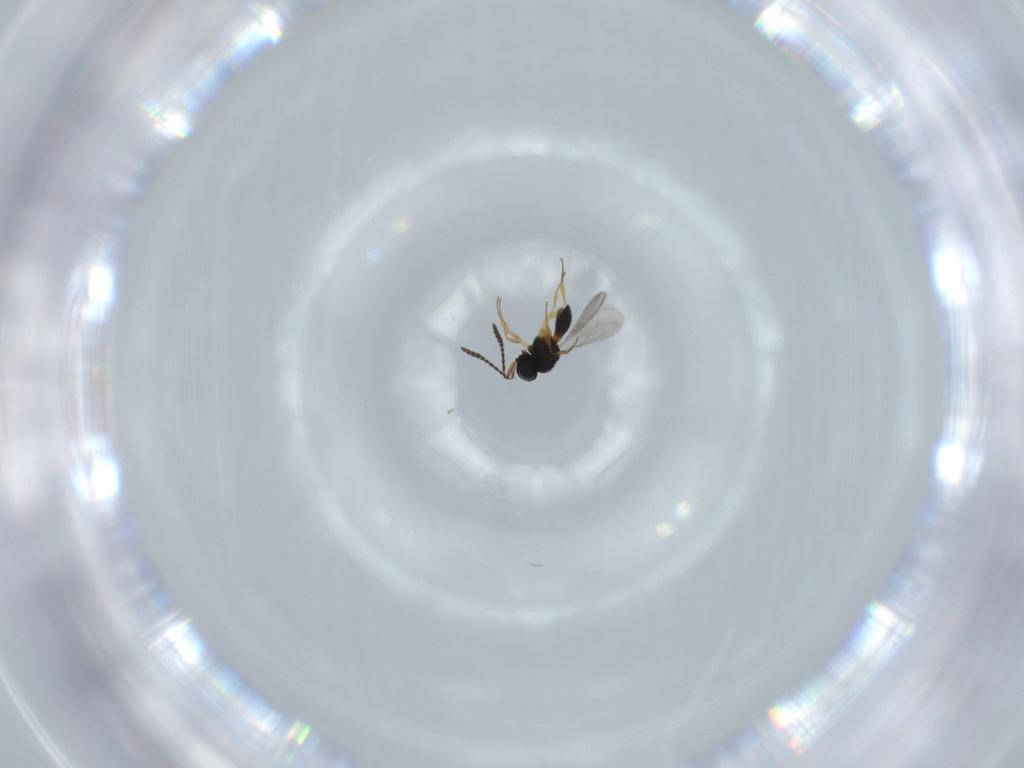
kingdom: Animalia
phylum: Arthropoda
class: Insecta
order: Hymenoptera
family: Scelionidae
